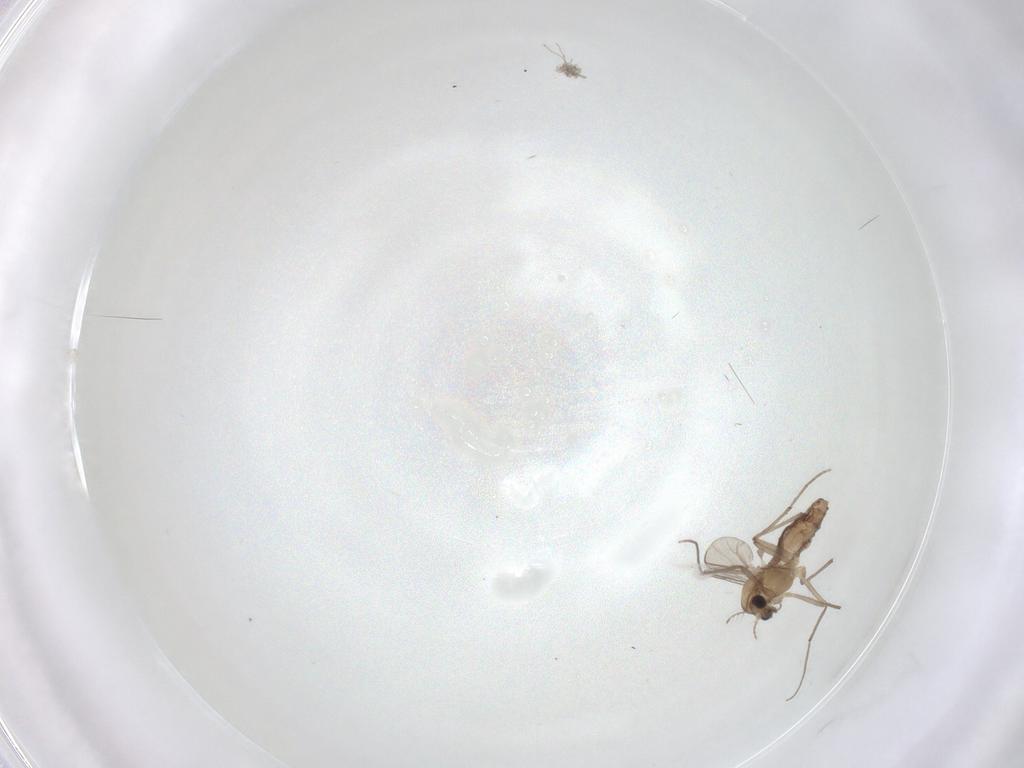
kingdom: Animalia
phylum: Arthropoda
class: Insecta
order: Diptera
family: Chironomidae
